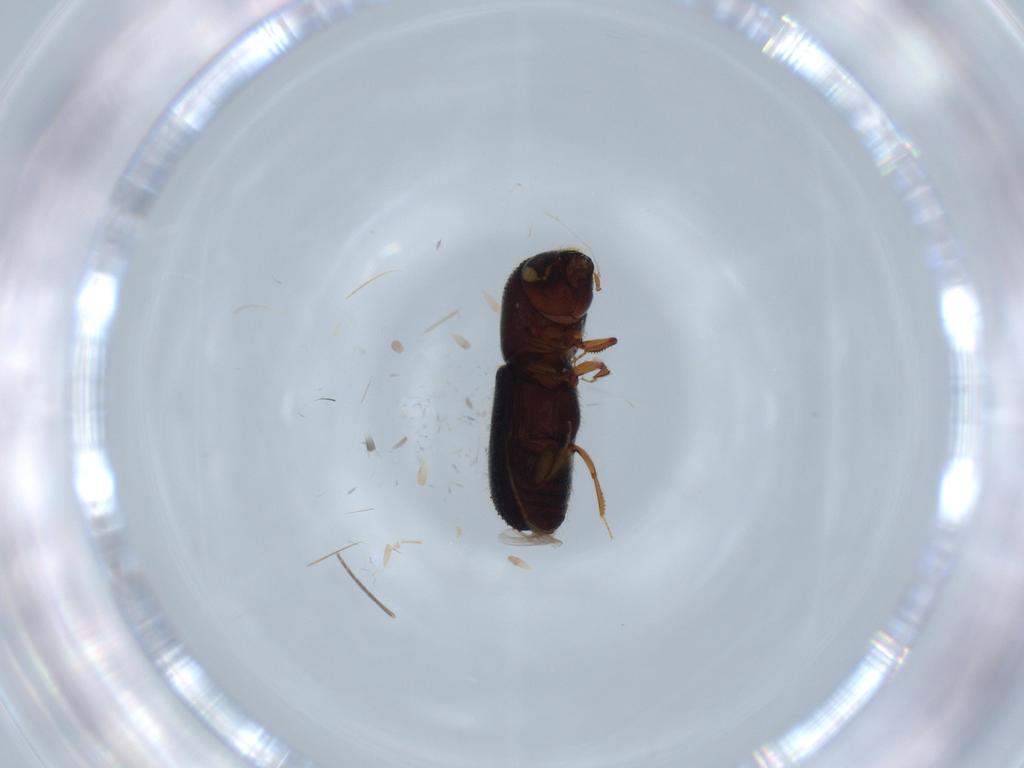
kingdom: Animalia
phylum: Arthropoda
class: Insecta
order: Coleoptera
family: Curculionidae
